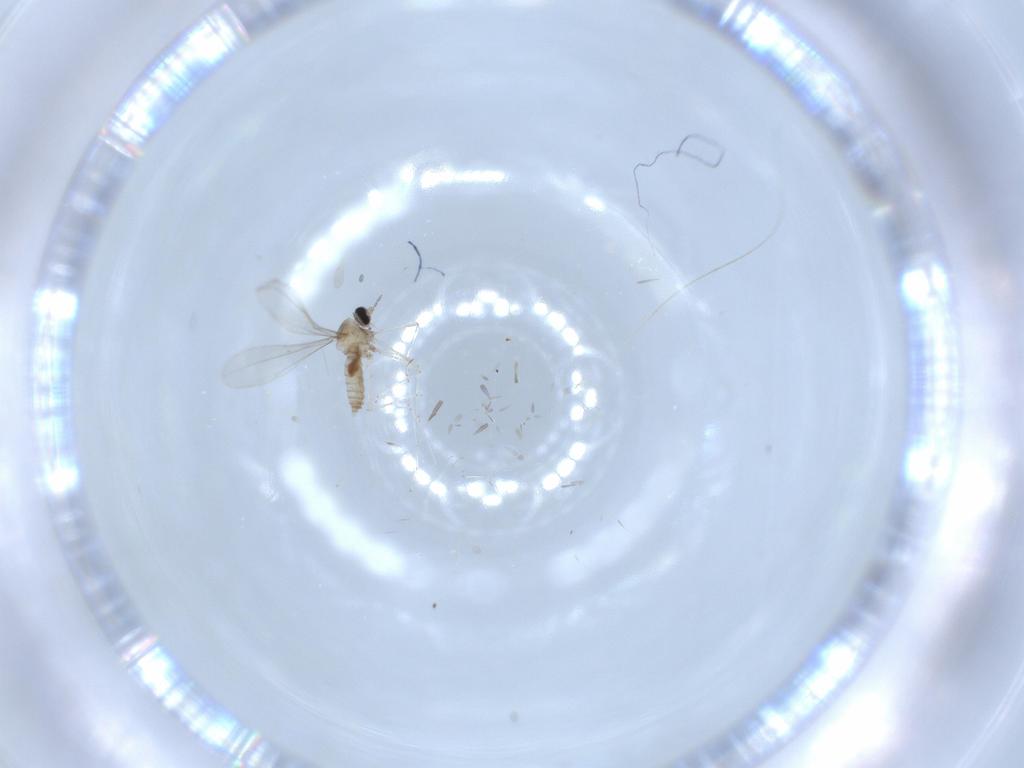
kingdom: Animalia
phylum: Arthropoda
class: Insecta
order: Diptera
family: Cecidomyiidae
